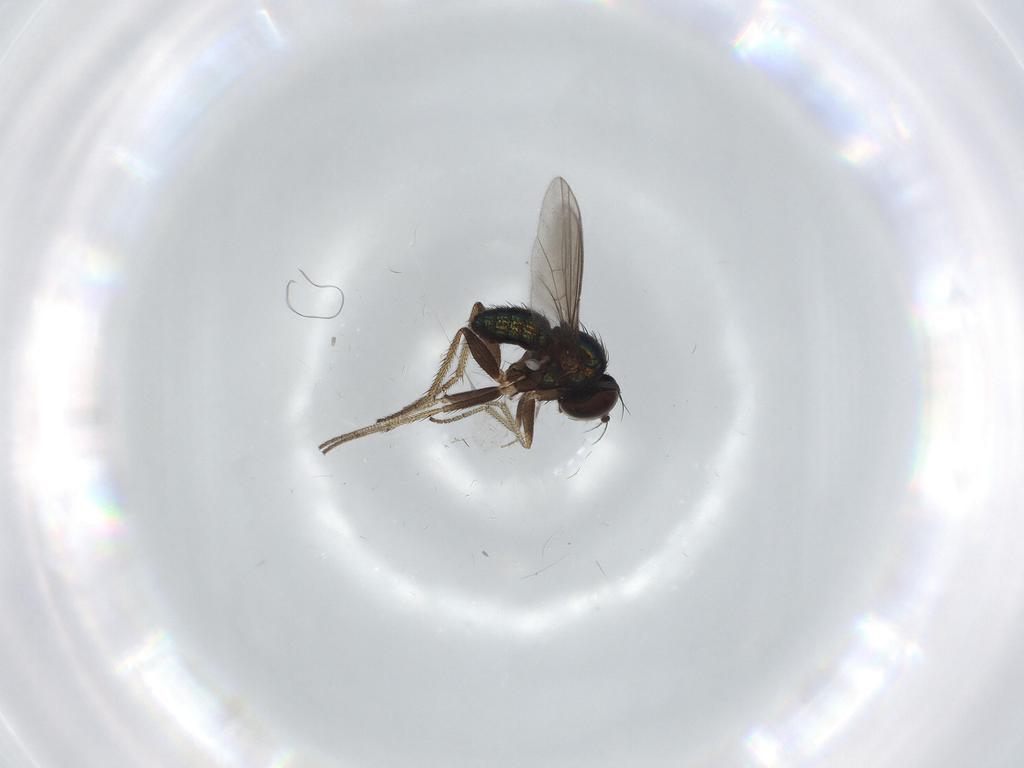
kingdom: Animalia
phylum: Arthropoda
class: Insecta
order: Diptera
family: Cecidomyiidae
